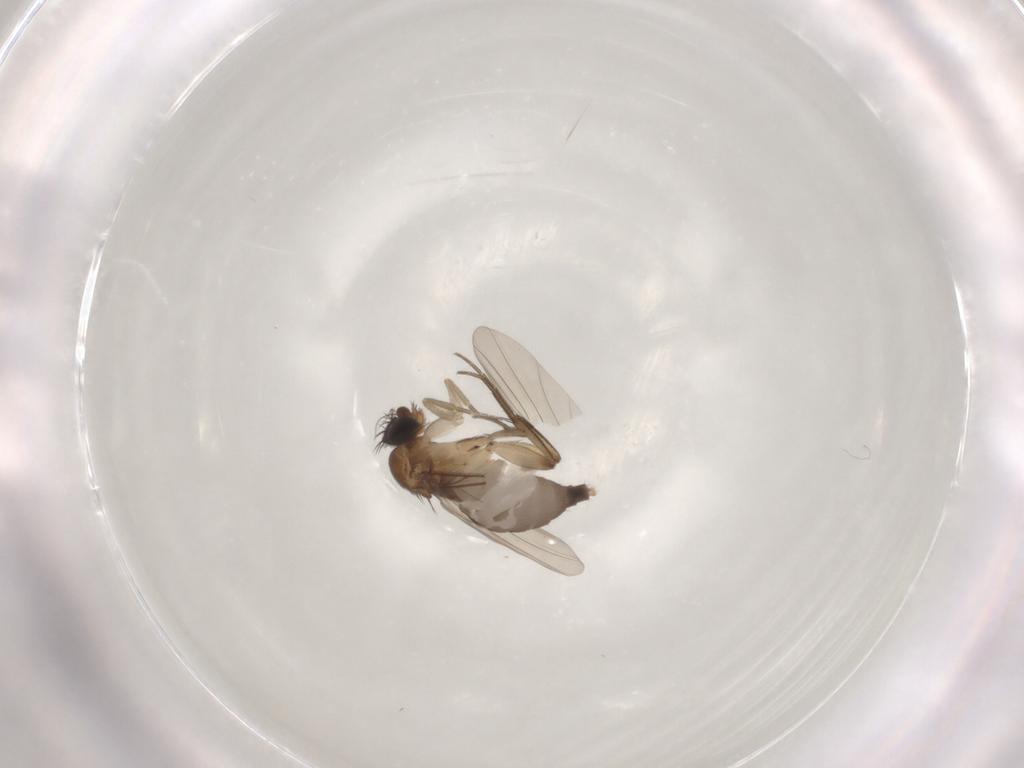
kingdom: Animalia
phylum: Arthropoda
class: Insecta
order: Diptera
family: Phoridae
